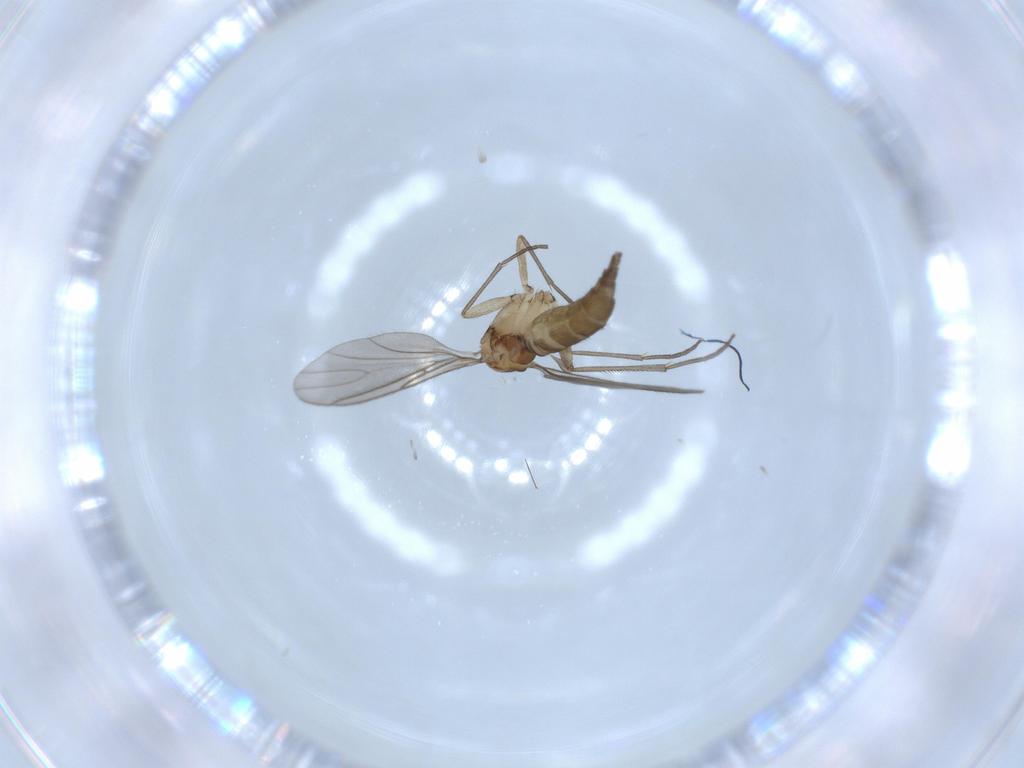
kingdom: Animalia
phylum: Arthropoda
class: Insecta
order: Diptera
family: Sciaridae
